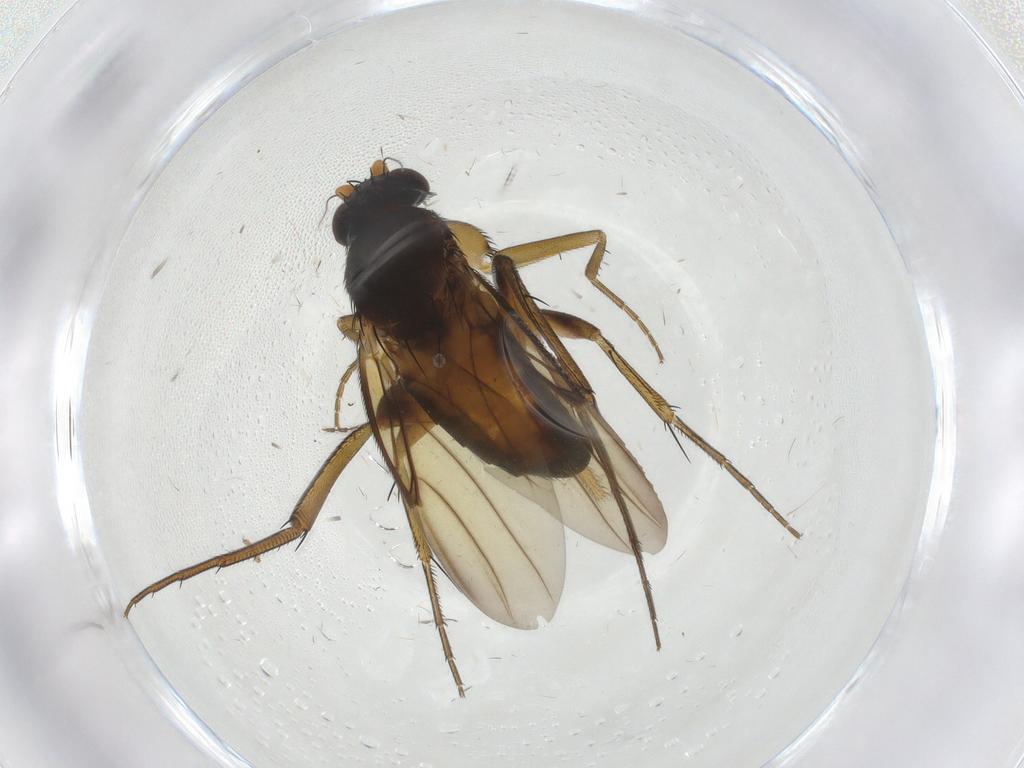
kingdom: Animalia
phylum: Arthropoda
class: Insecta
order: Diptera
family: Phoridae
